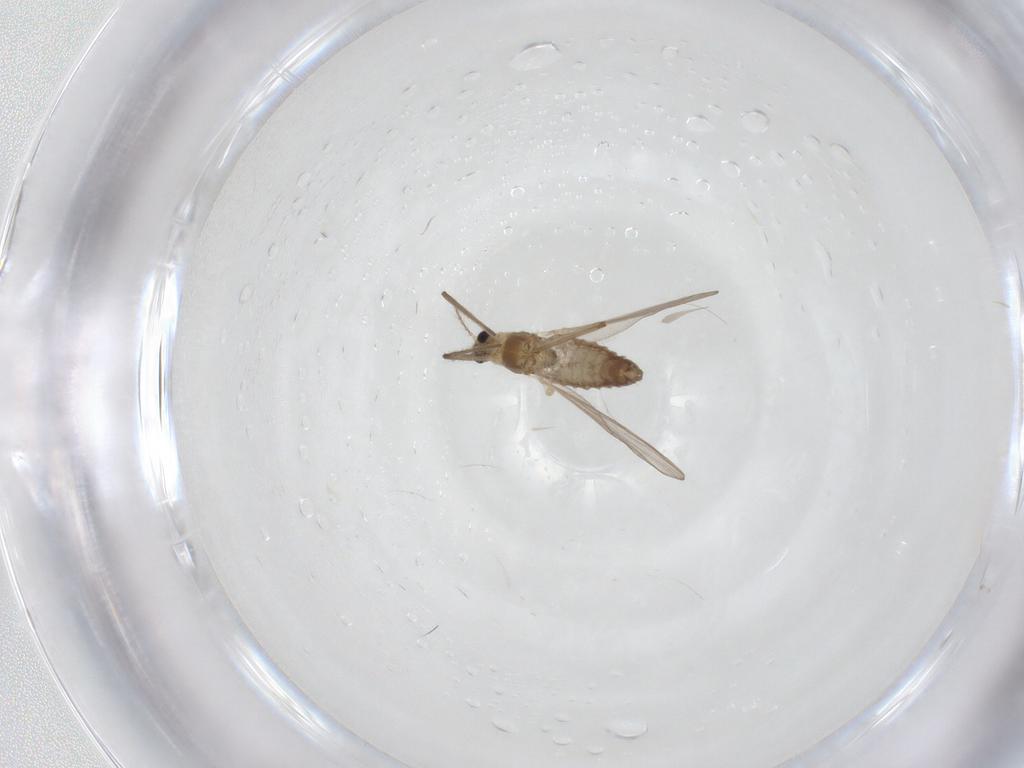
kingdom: Animalia
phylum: Arthropoda
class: Insecta
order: Diptera
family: Chironomidae
